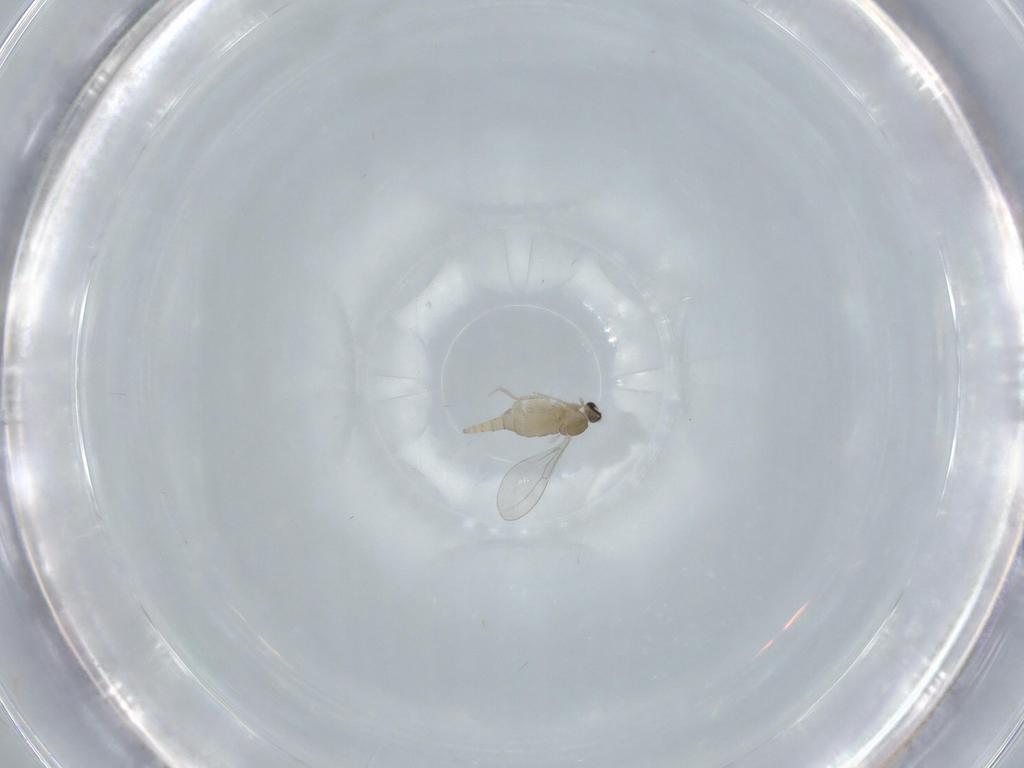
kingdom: Animalia
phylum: Arthropoda
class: Insecta
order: Diptera
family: Cecidomyiidae
